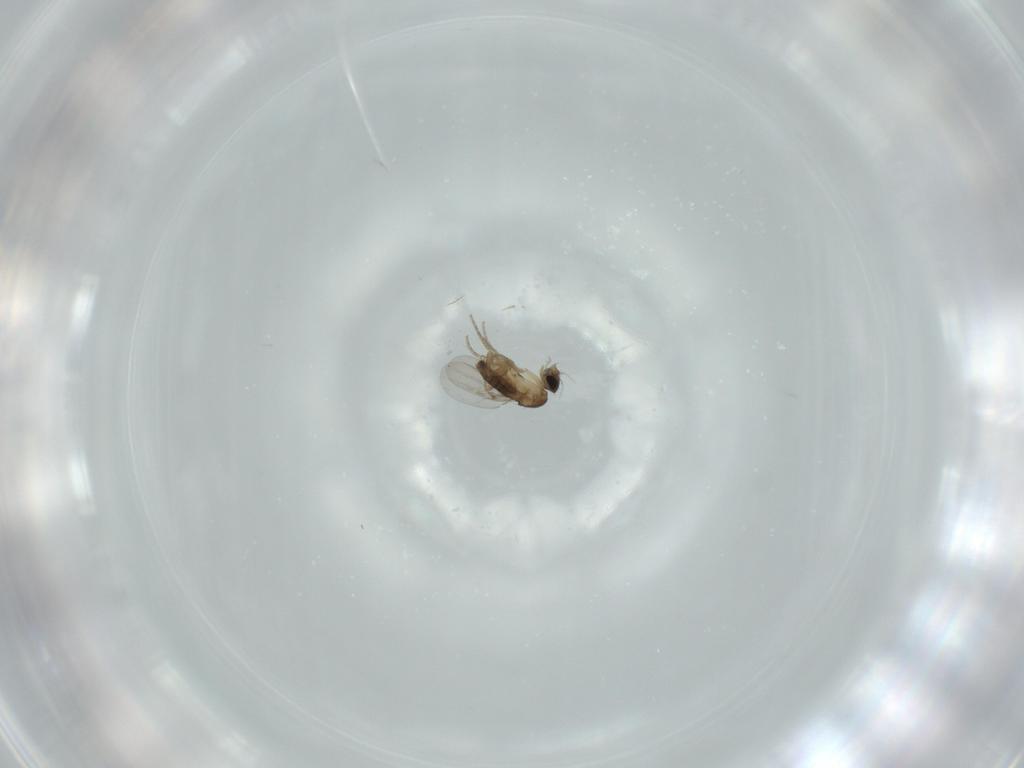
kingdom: Animalia
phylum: Arthropoda
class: Insecta
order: Diptera
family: Sciaridae
